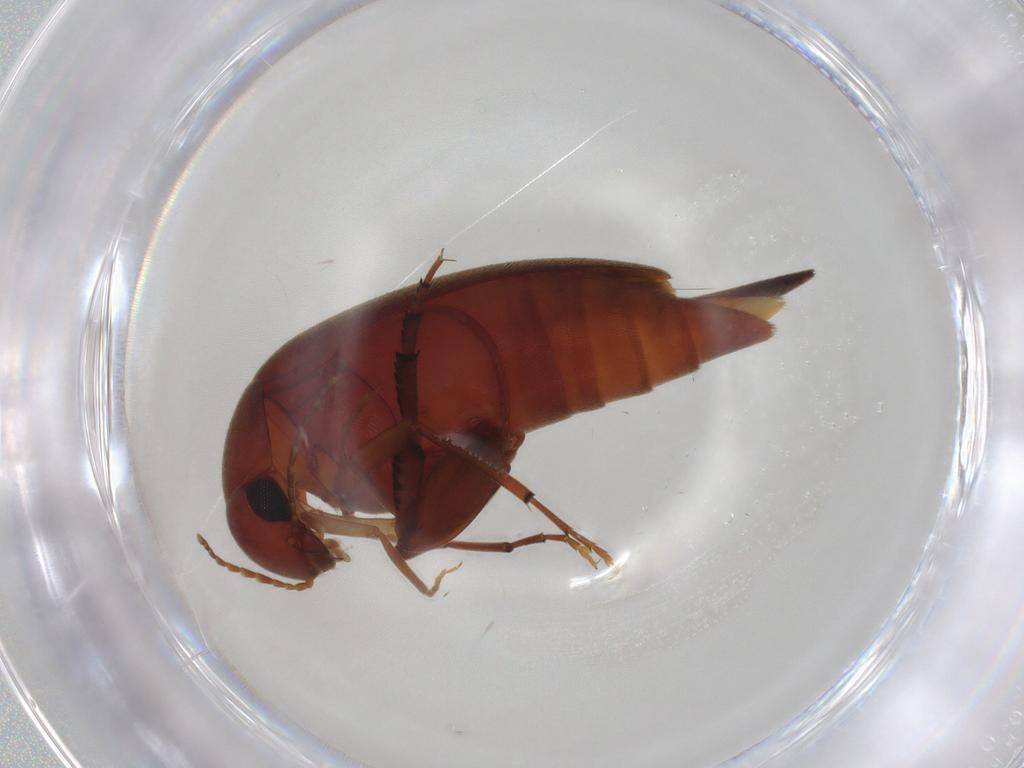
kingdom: Animalia
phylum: Arthropoda
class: Insecta
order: Coleoptera
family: Mordellidae
